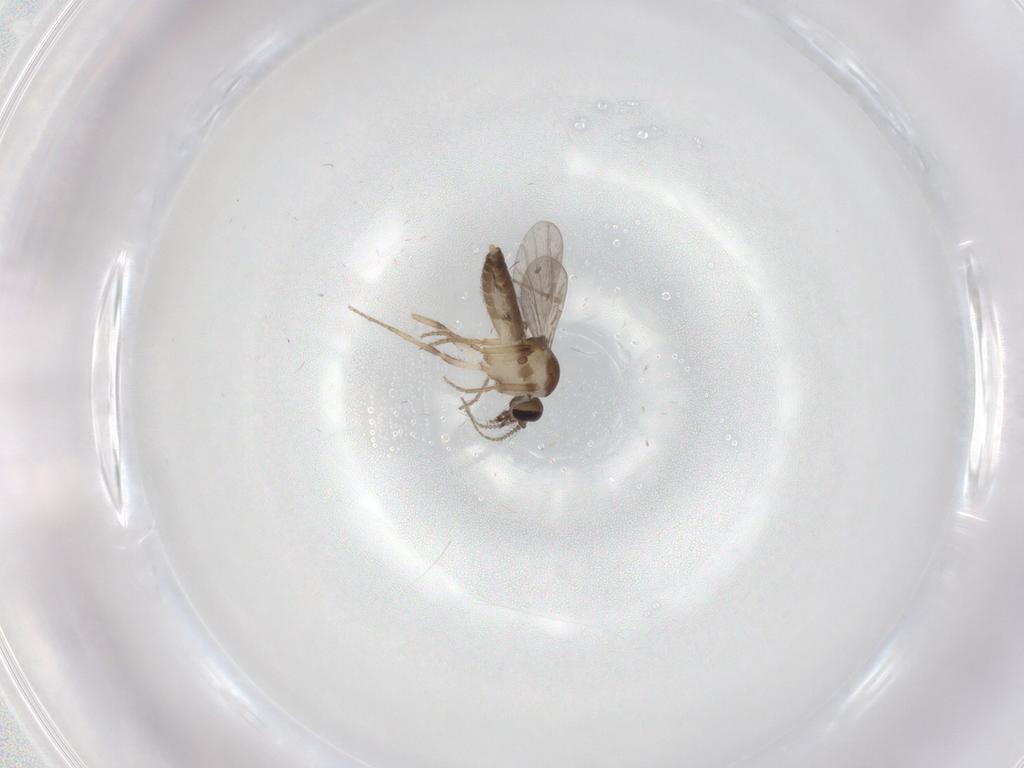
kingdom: Animalia
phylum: Arthropoda
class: Insecta
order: Diptera
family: Ceratopogonidae
